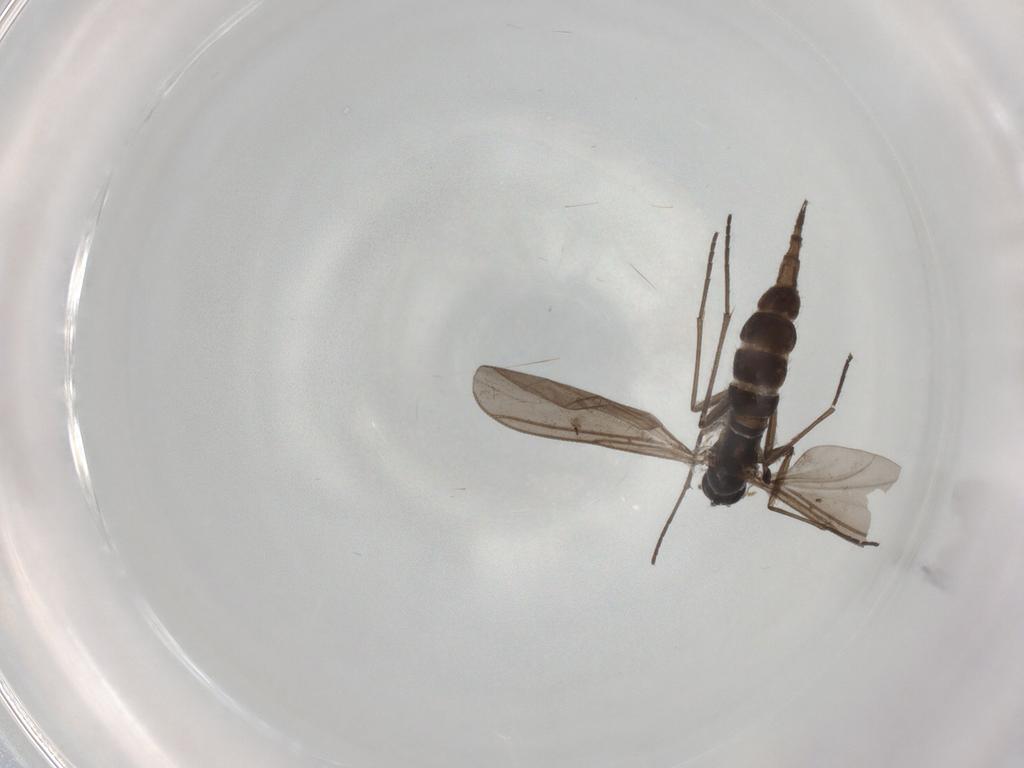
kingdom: Animalia
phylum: Arthropoda
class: Insecta
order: Diptera
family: Sciaridae
